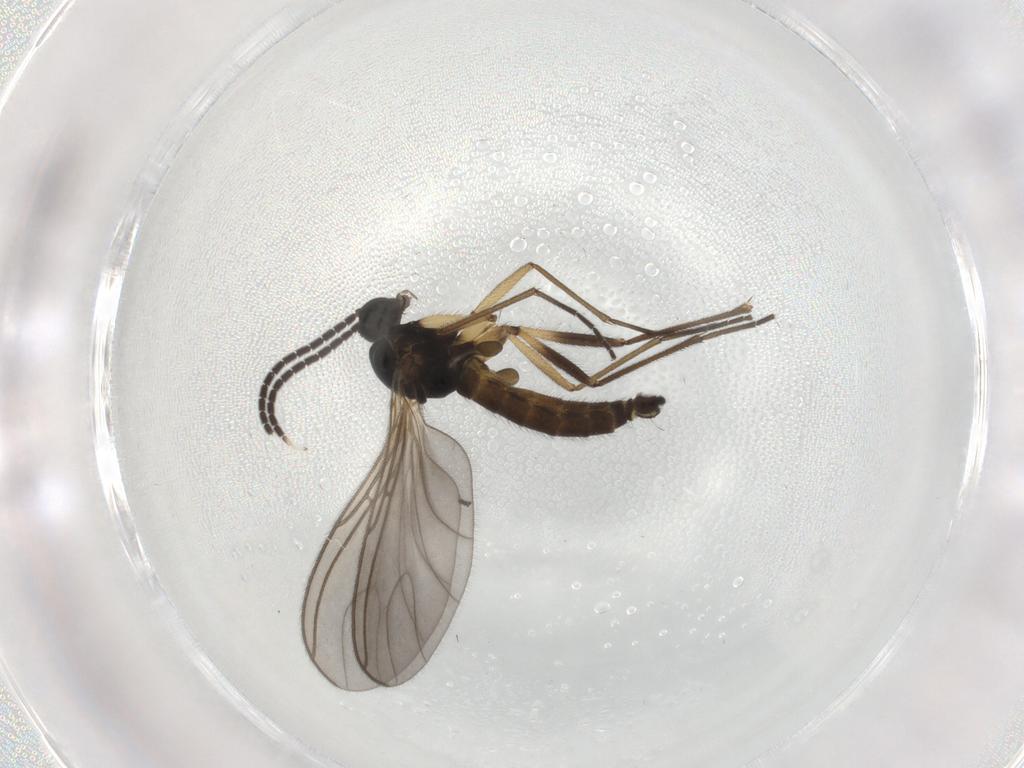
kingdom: Animalia
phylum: Arthropoda
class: Insecta
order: Diptera
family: Sciaridae
